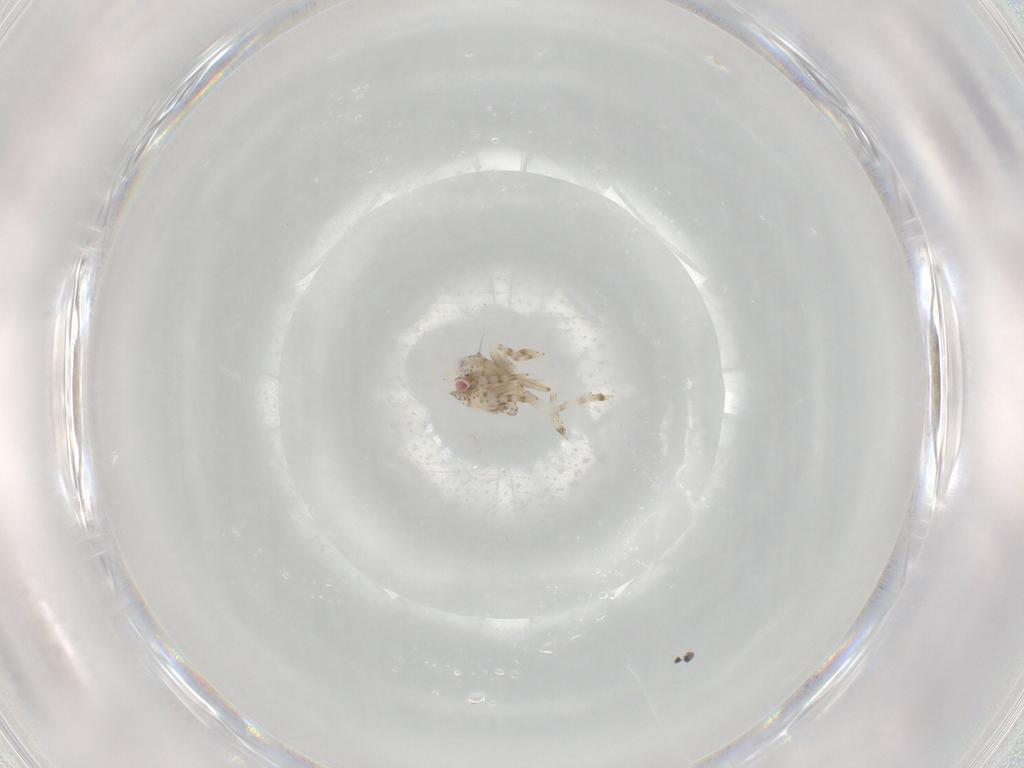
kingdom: Animalia
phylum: Arthropoda
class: Insecta
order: Hemiptera
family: Acanaloniidae
